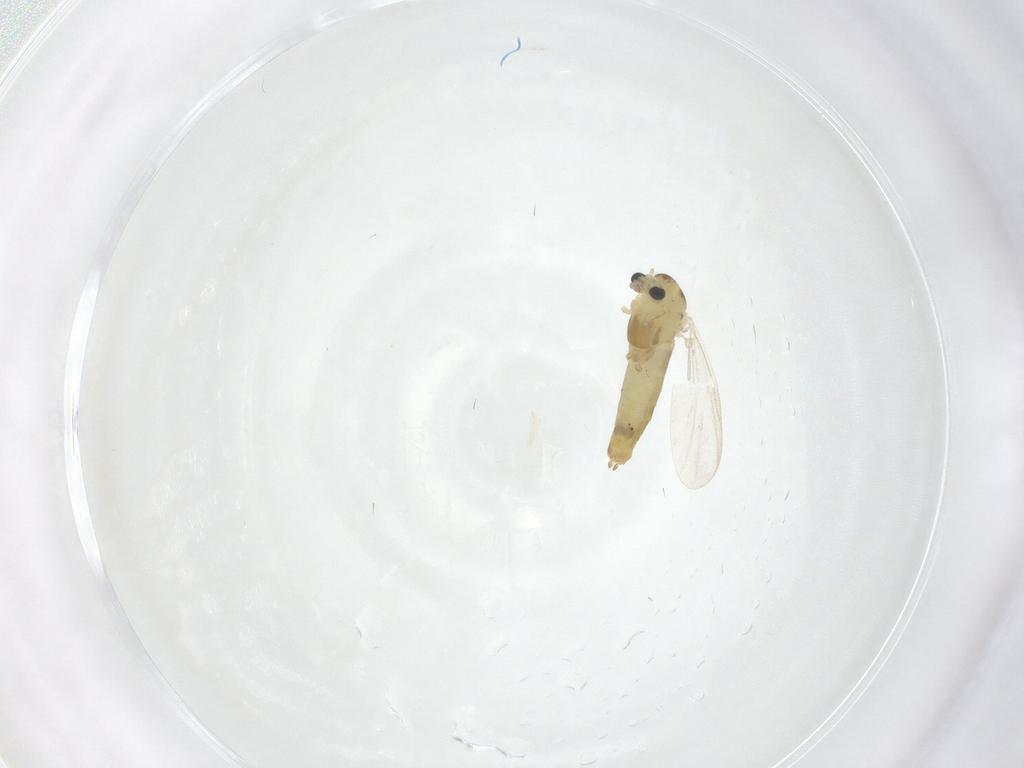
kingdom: Animalia
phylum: Arthropoda
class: Insecta
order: Diptera
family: Chironomidae
